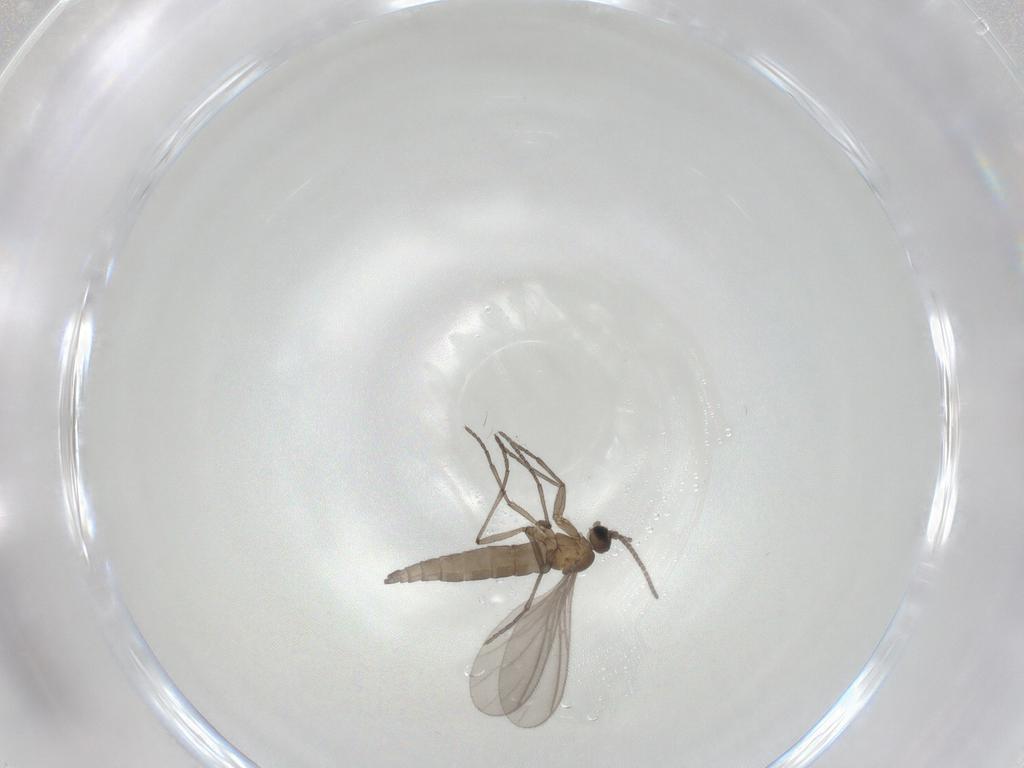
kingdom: Animalia
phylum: Arthropoda
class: Insecta
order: Diptera
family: Sciaridae
